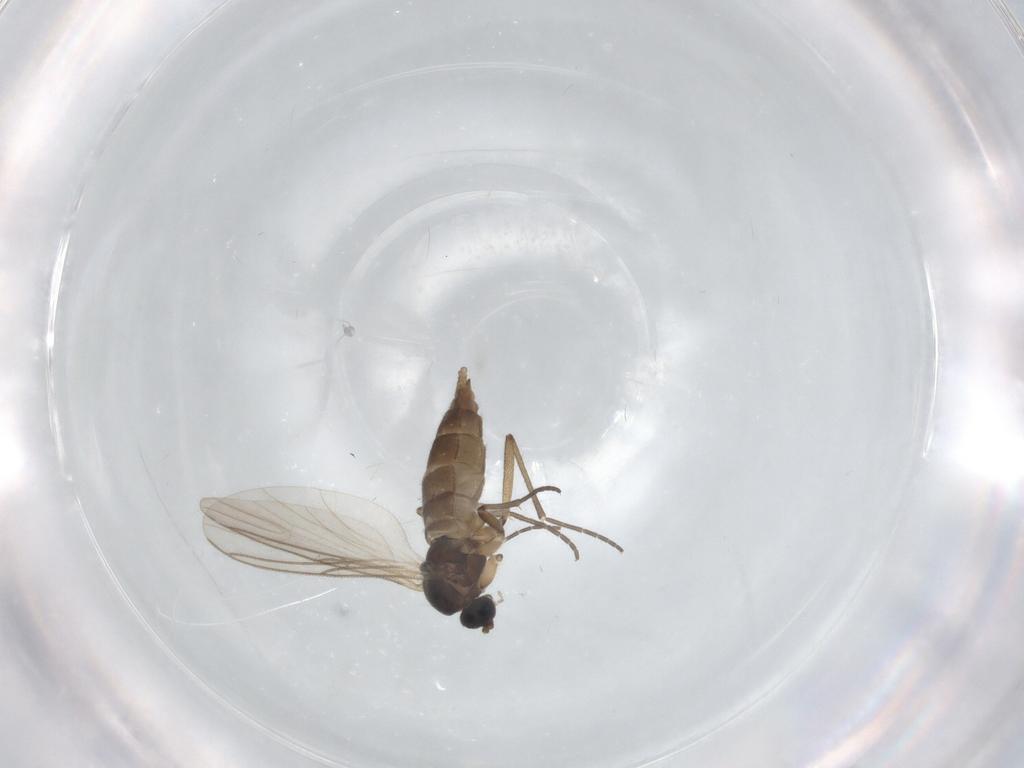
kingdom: Animalia
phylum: Arthropoda
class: Insecta
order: Diptera
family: Sciaridae
